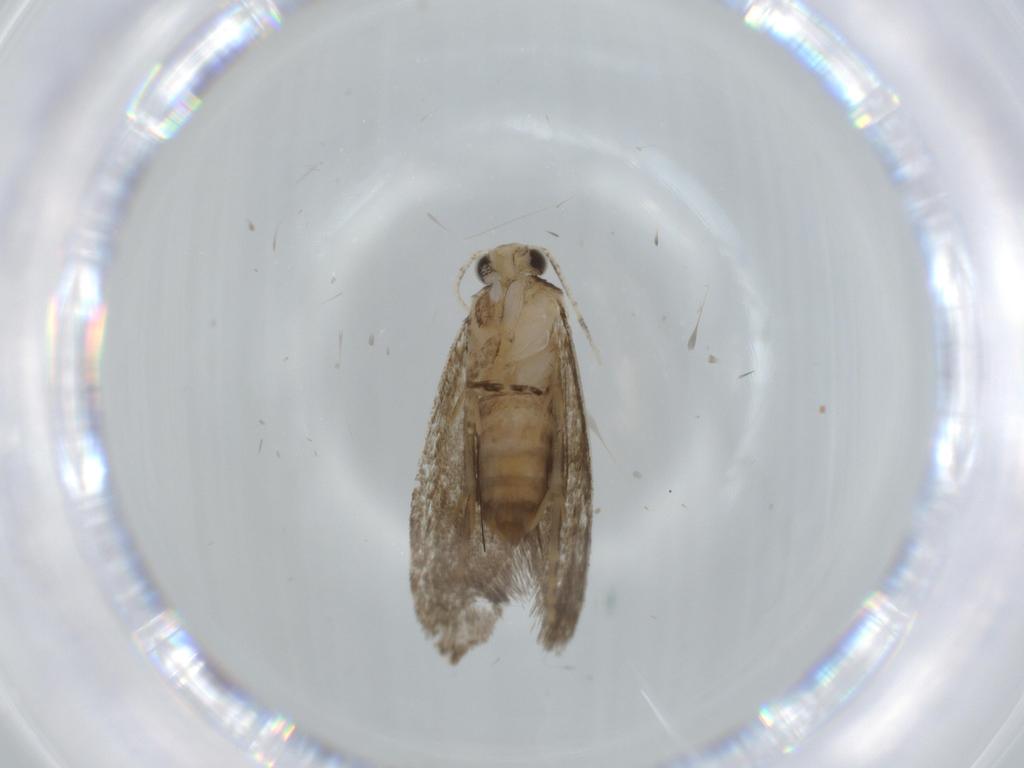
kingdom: Animalia
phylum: Arthropoda
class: Insecta
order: Lepidoptera
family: Tineidae
